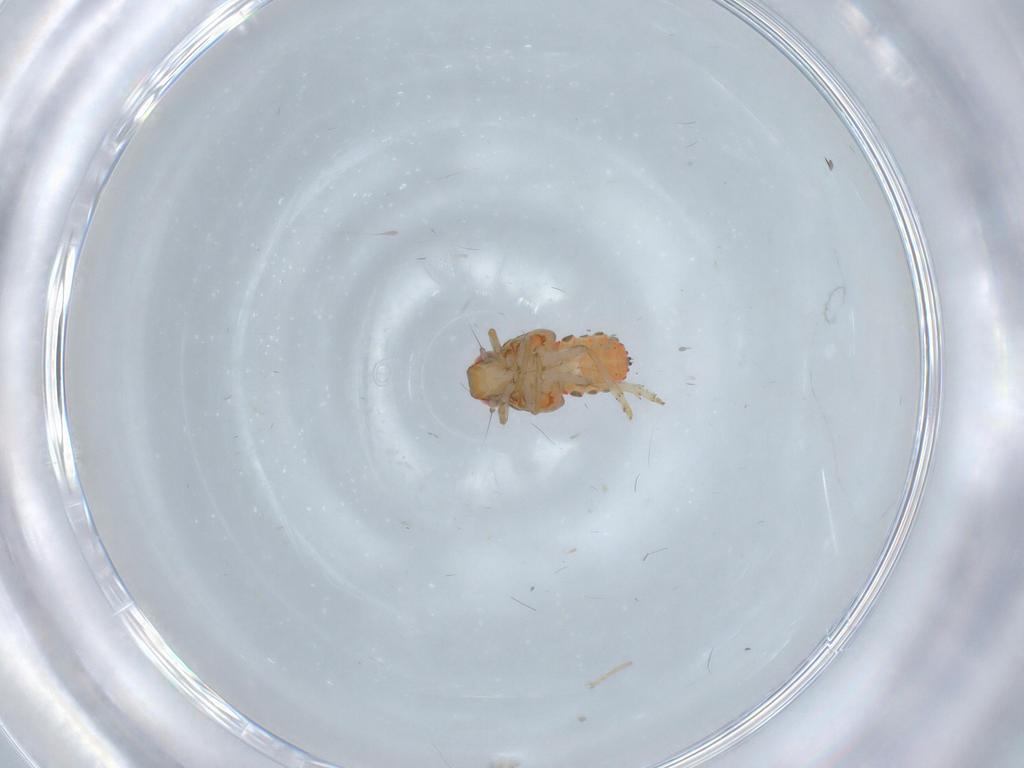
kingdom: Animalia
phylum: Arthropoda
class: Insecta
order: Hemiptera
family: Issidae
